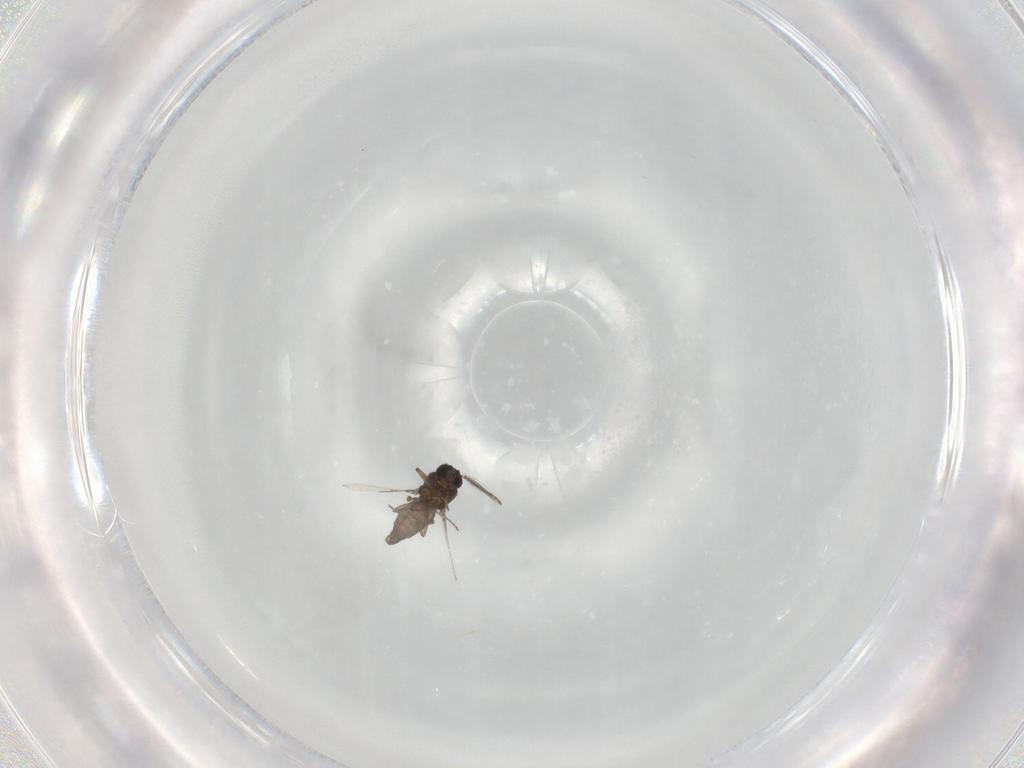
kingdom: Animalia
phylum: Arthropoda
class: Insecta
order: Diptera
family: Ceratopogonidae
